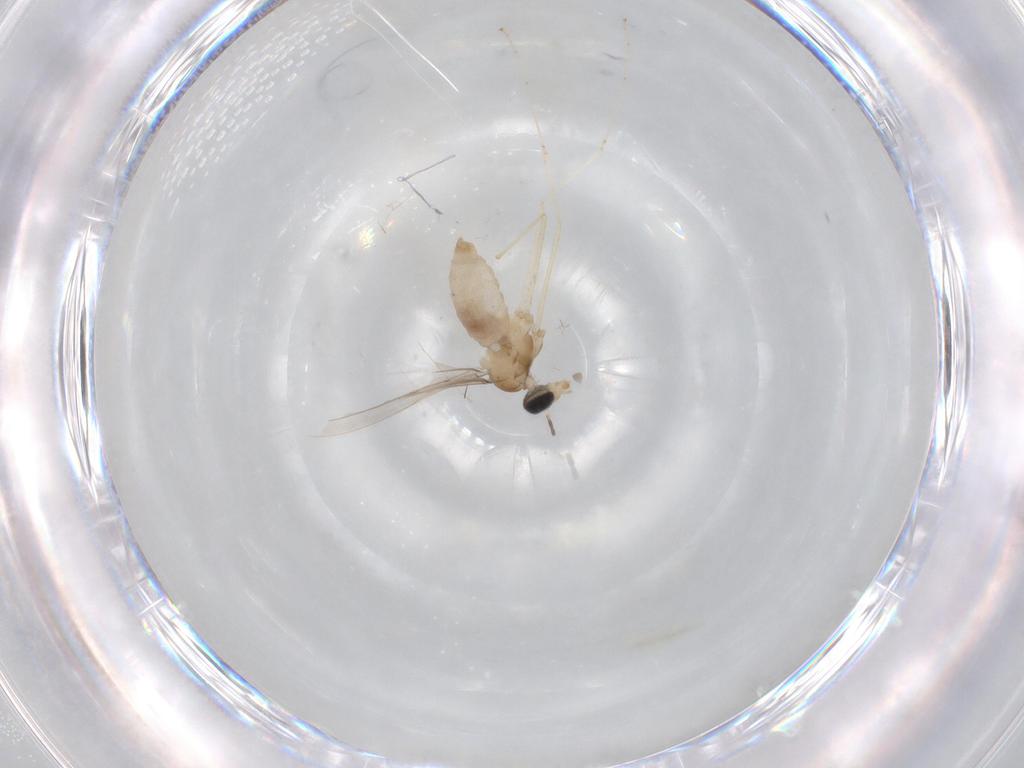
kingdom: Animalia
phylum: Arthropoda
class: Insecta
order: Diptera
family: Cecidomyiidae
